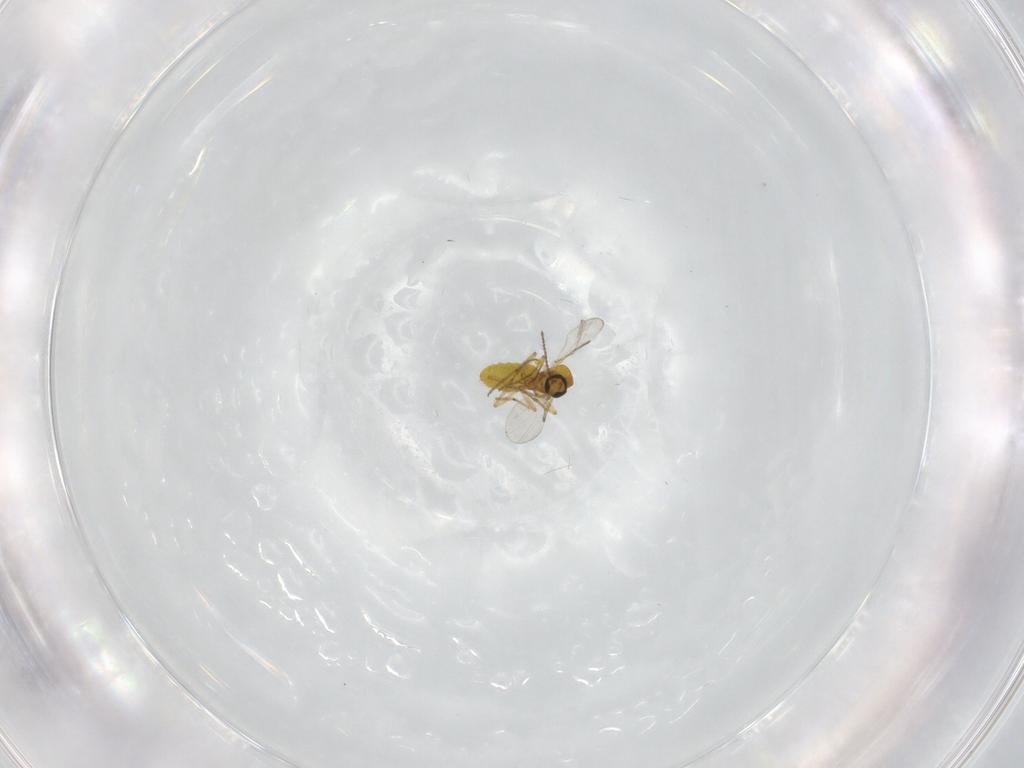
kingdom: Animalia
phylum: Arthropoda
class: Insecta
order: Diptera
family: Ceratopogonidae
